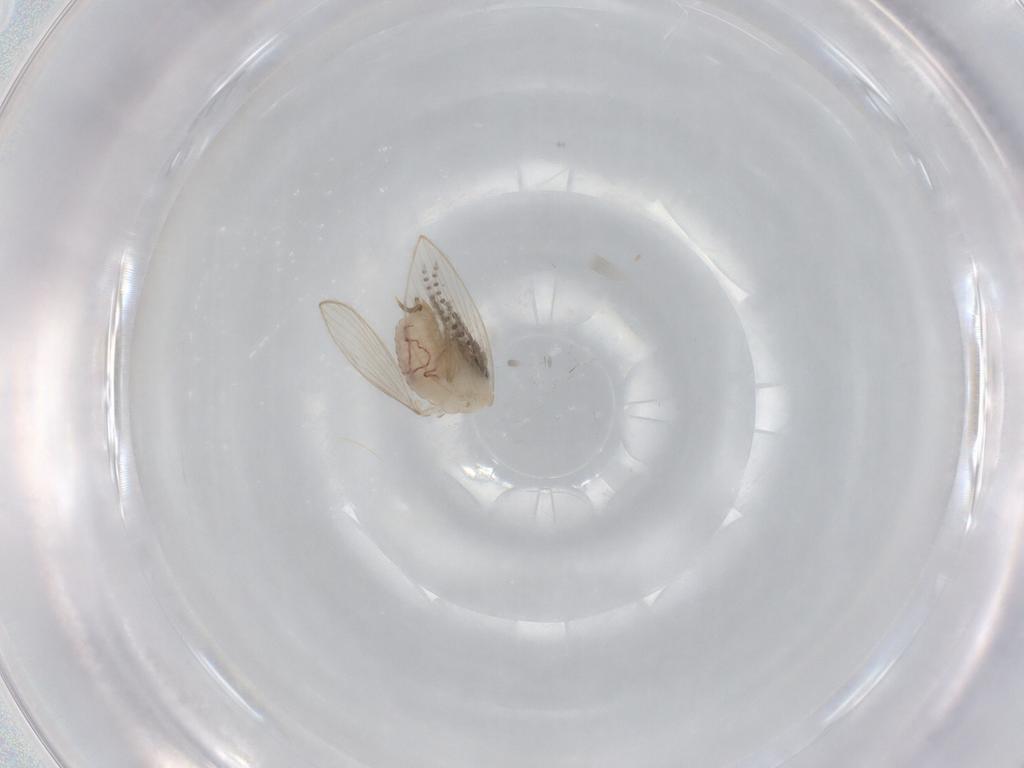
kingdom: Animalia
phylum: Arthropoda
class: Insecta
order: Diptera
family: Psychodidae
